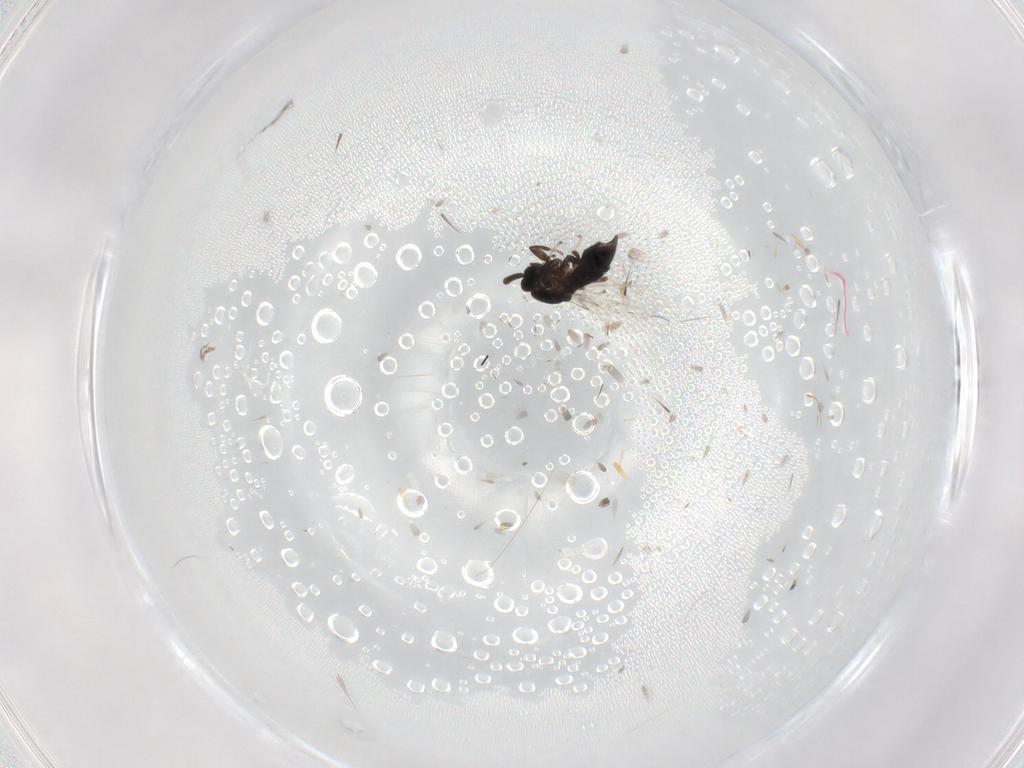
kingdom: Animalia
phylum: Arthropoda
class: Insecta
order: Diptera
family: Scatopsidae
